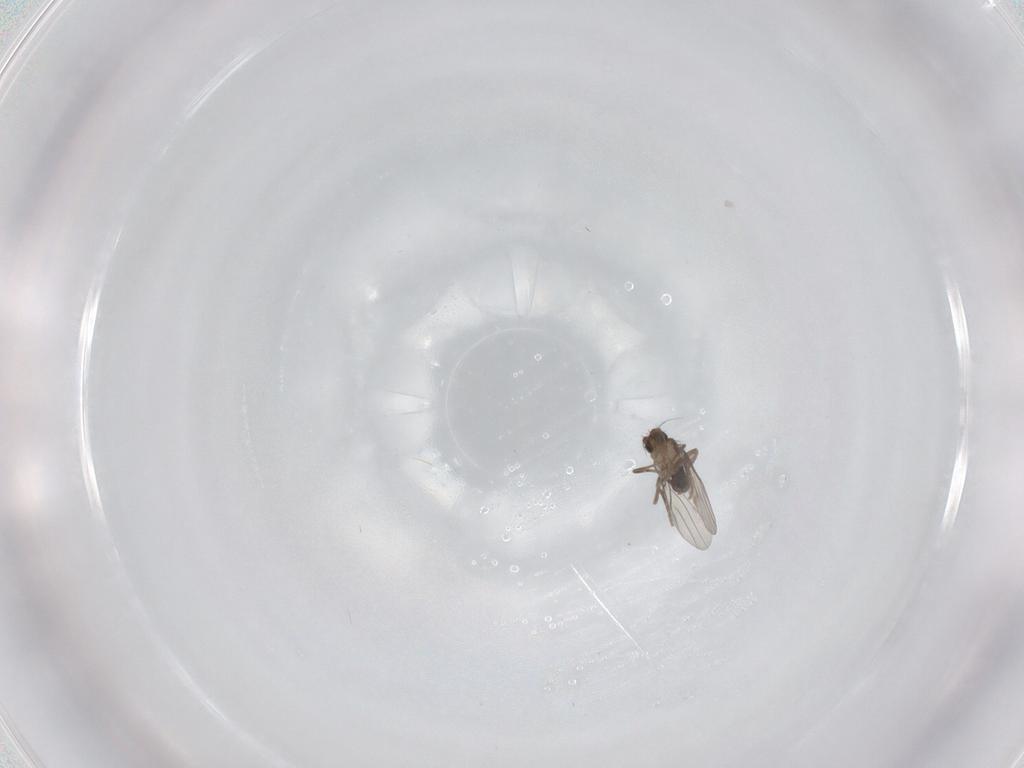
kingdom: Animalia
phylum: Arthropoda
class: Insecta
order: Diptera
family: Phoridae
